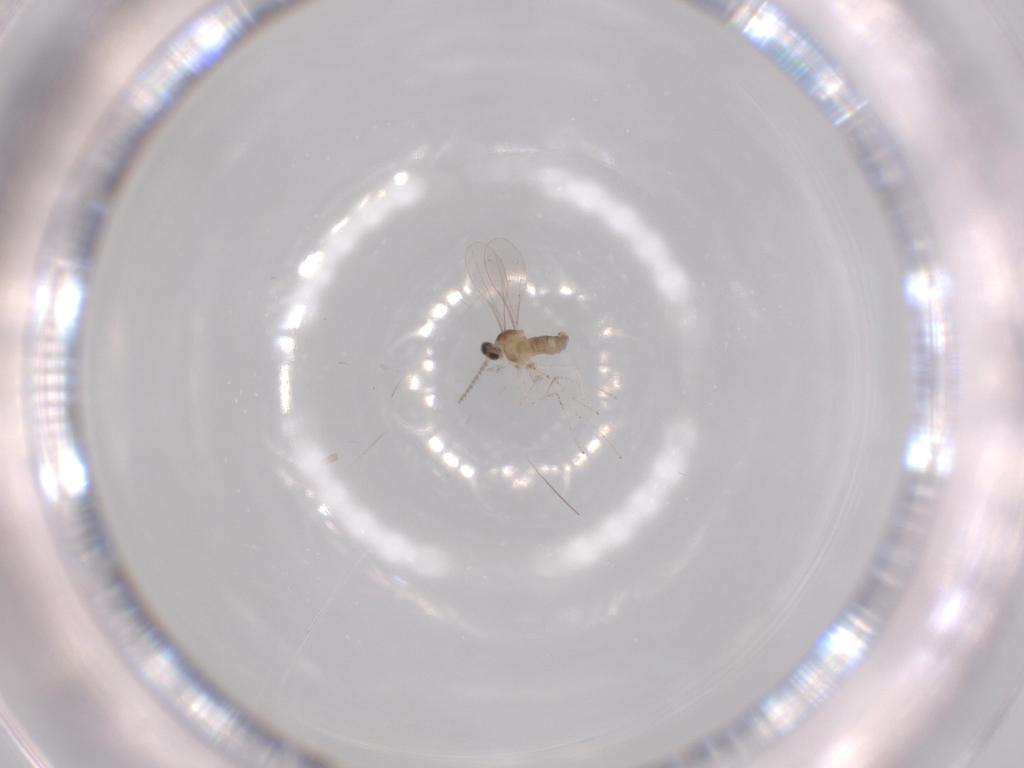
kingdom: Animalia
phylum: Arthropoda
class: Insecta
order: Diptera
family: Cecidomyiidae
